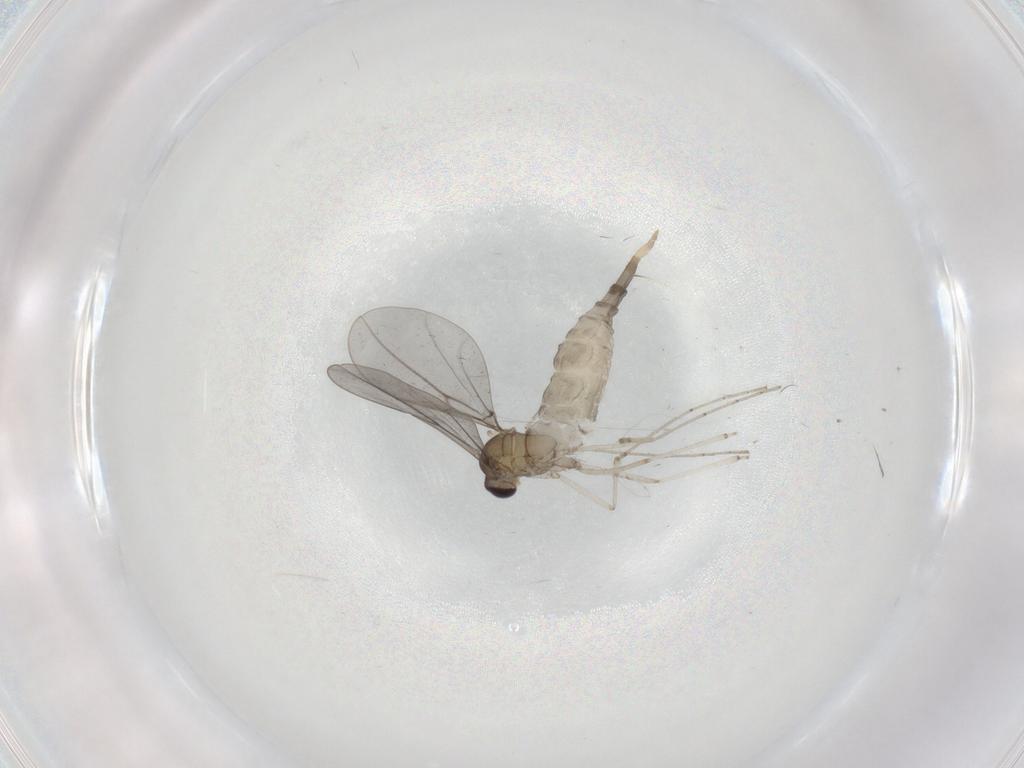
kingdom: Animalia
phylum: Arthropoda
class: Insecta
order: Diptera
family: Cecidomyiidae
